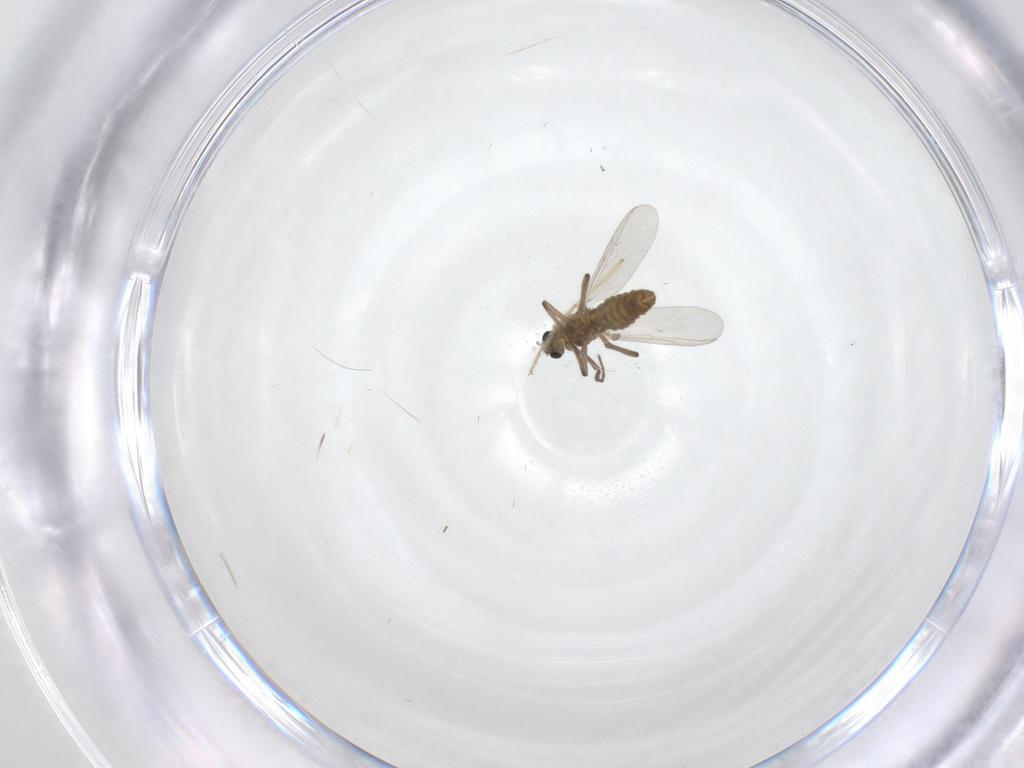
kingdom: Animalia
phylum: Arthropoda
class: Insecta
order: Diptera
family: Chironomidae
